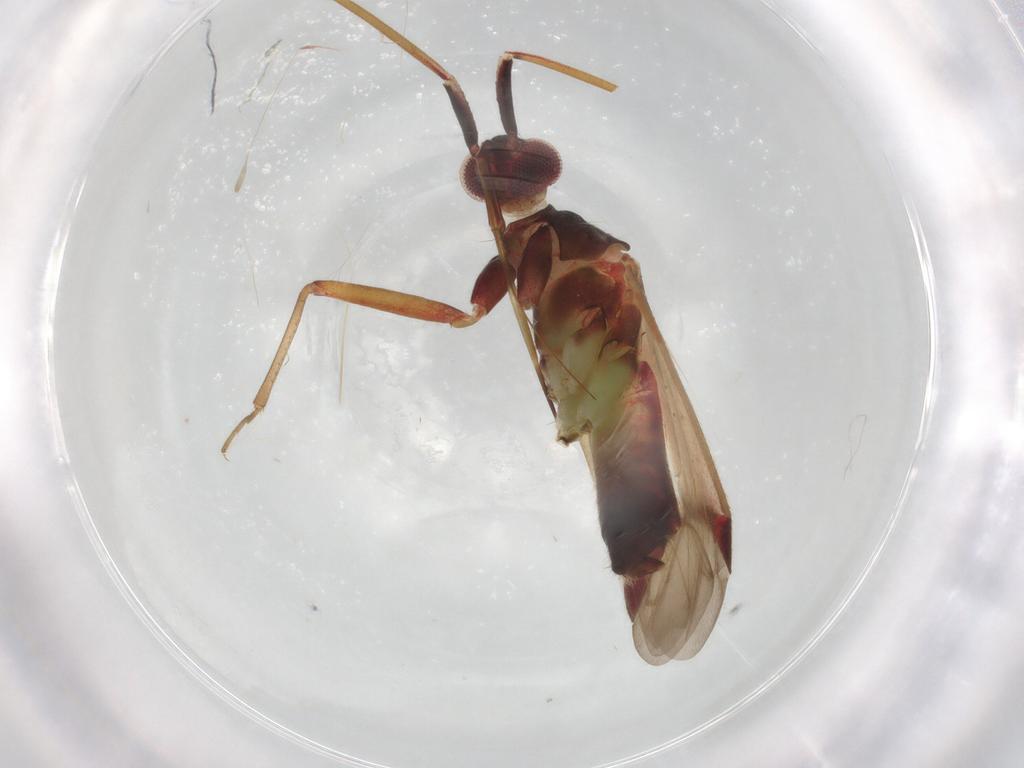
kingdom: Animalia
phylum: Arthropoda
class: Insecta
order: Hemiptera
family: Miridae
